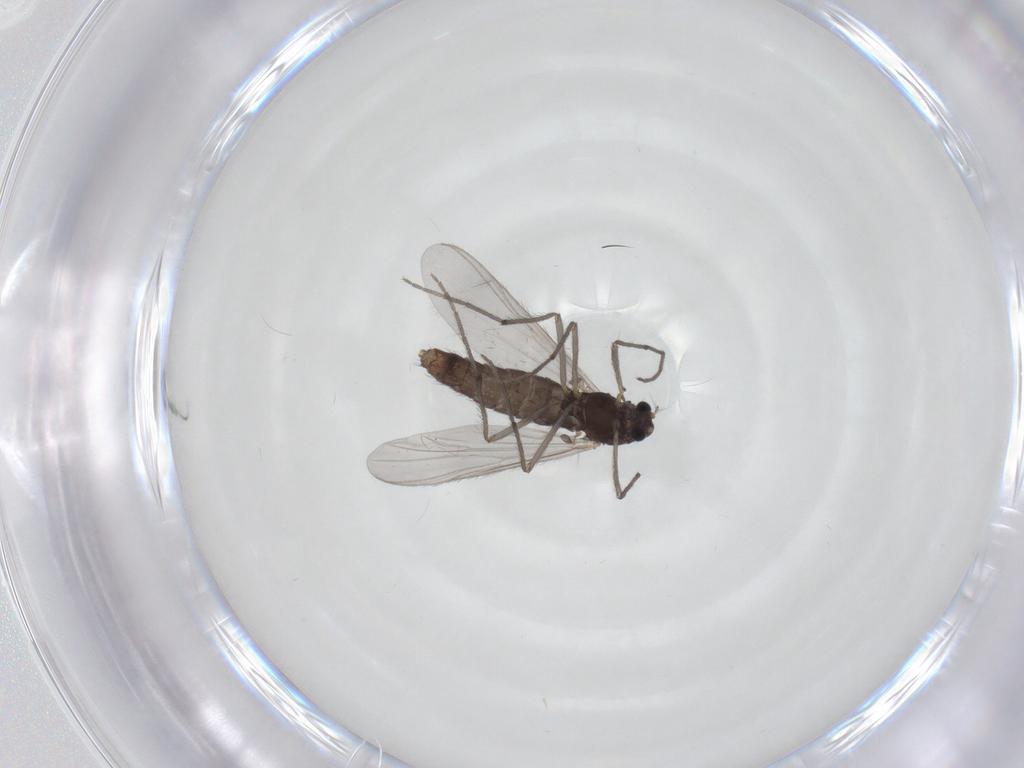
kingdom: Animalia
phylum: Arthropoda
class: Insecta
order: Diptera
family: Chironomidae
